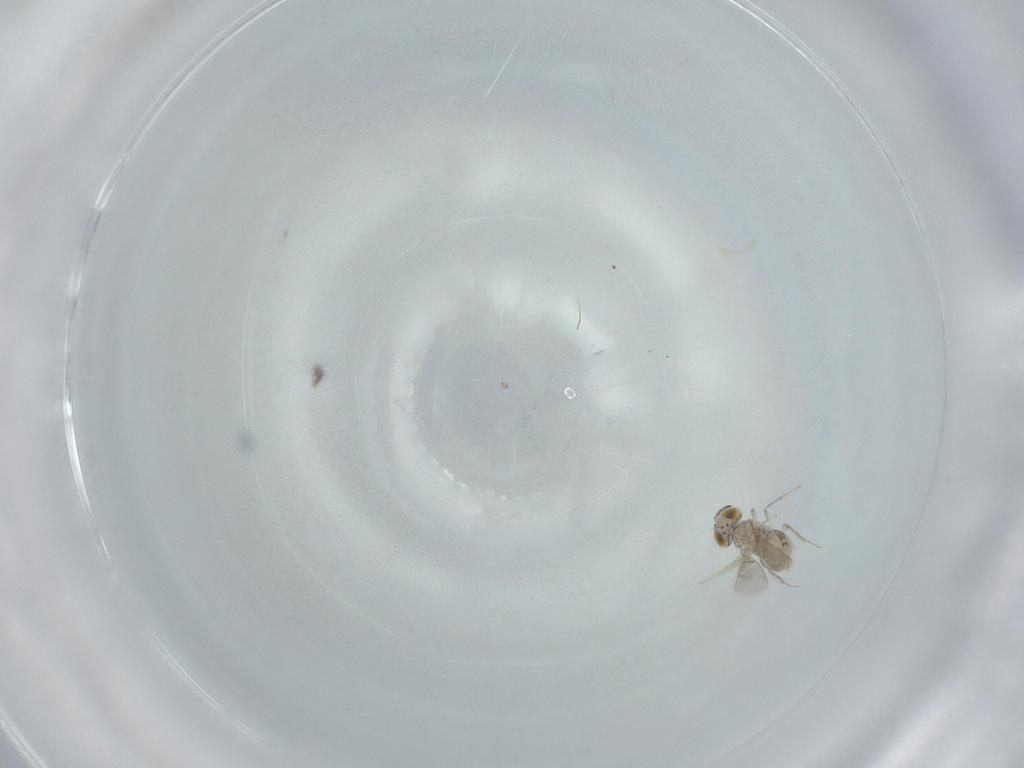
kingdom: Animalia
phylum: Arthropoda
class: Insecta
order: Hymenoptera
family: Aphelinidae
